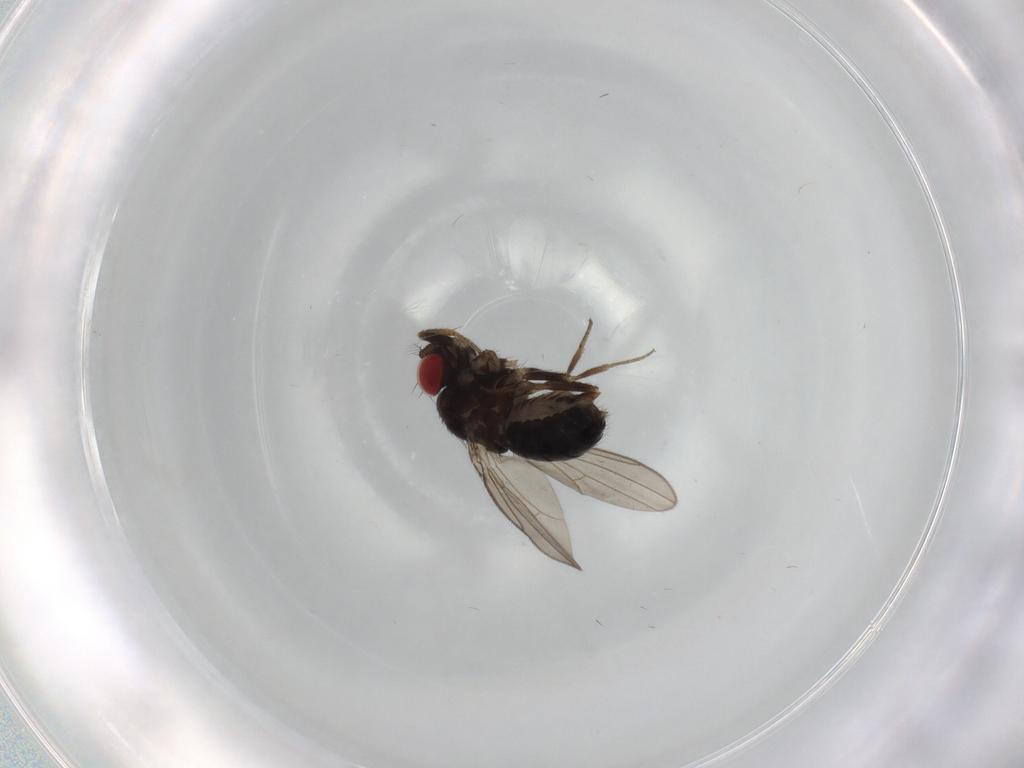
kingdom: Animalia
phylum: Arthropoda
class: Insecta
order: Diptera
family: Drosophilidae
